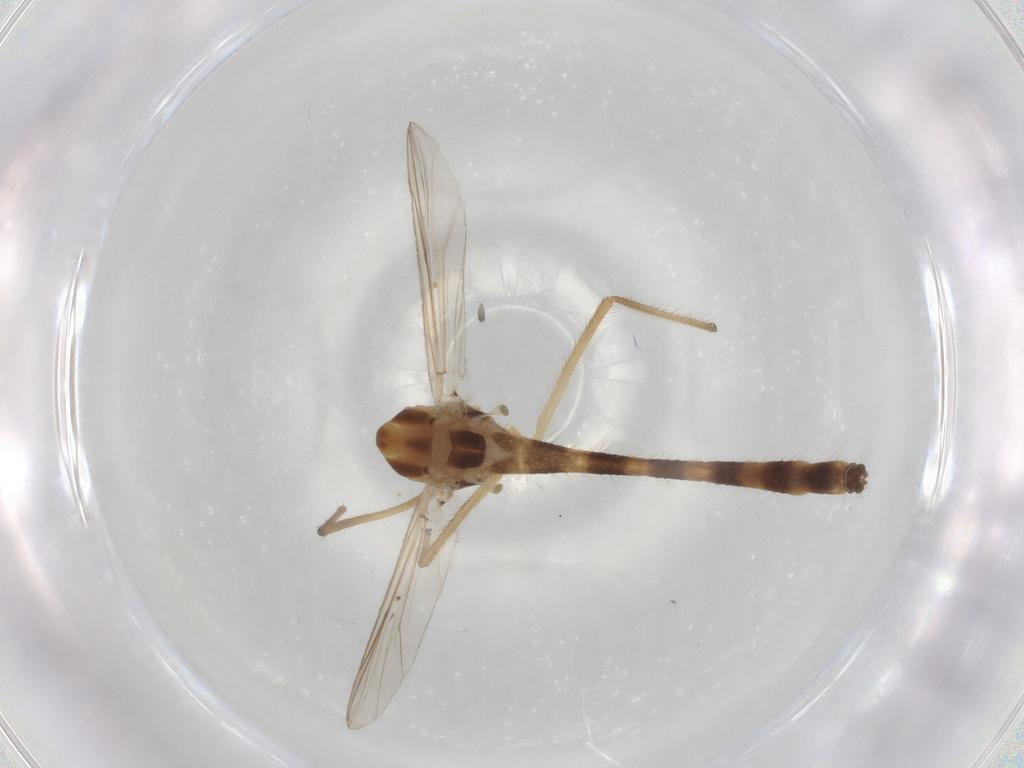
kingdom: Animalia
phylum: Arthropoda
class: Insecta
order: Diptera
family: Chironomidae
